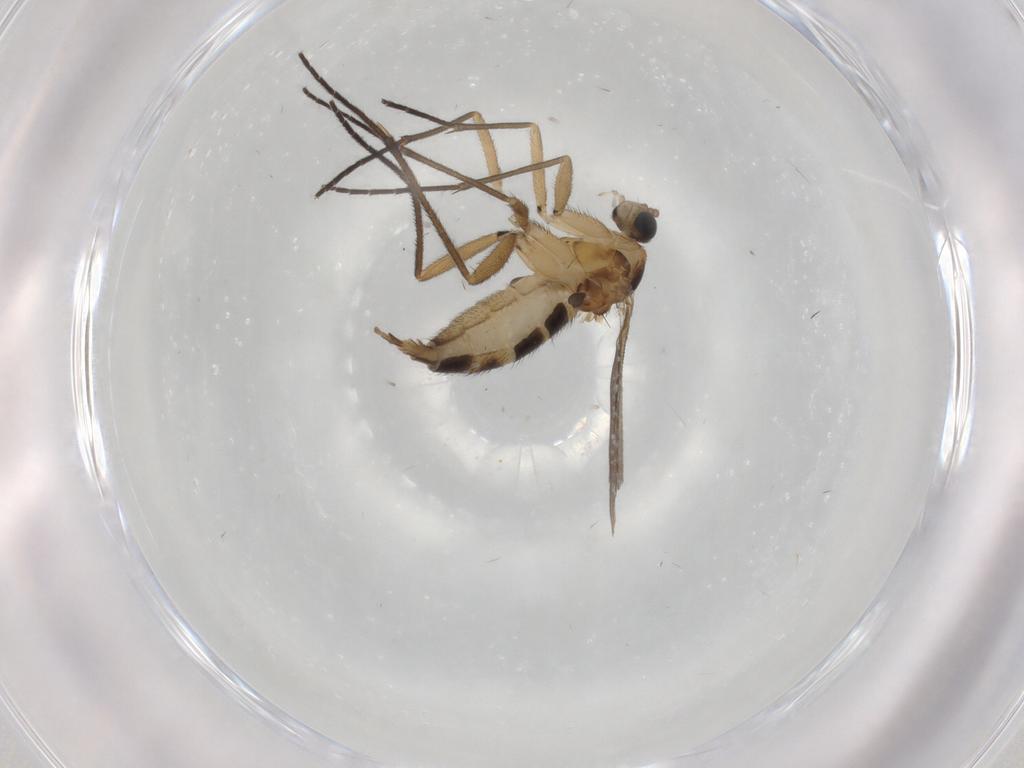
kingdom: Animalia
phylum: Arthropoda
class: Insecta
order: Diptera
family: Sciaridae
